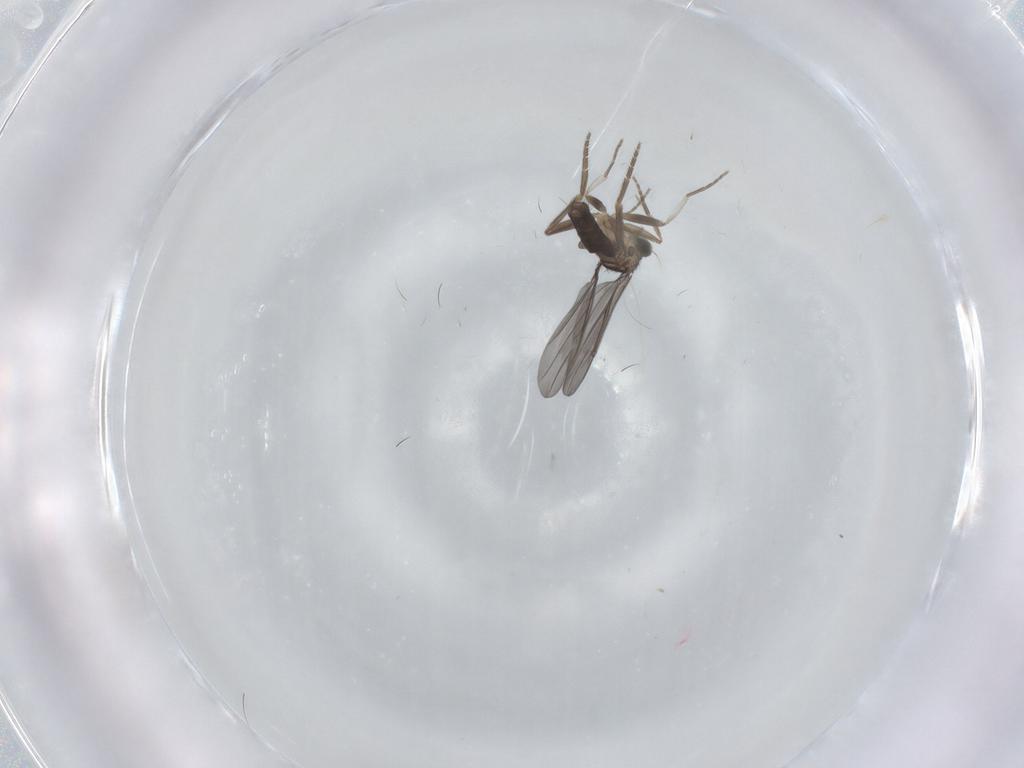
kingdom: Animalia
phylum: Arthropoda
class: Insecta
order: Diptera
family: Phoridae
